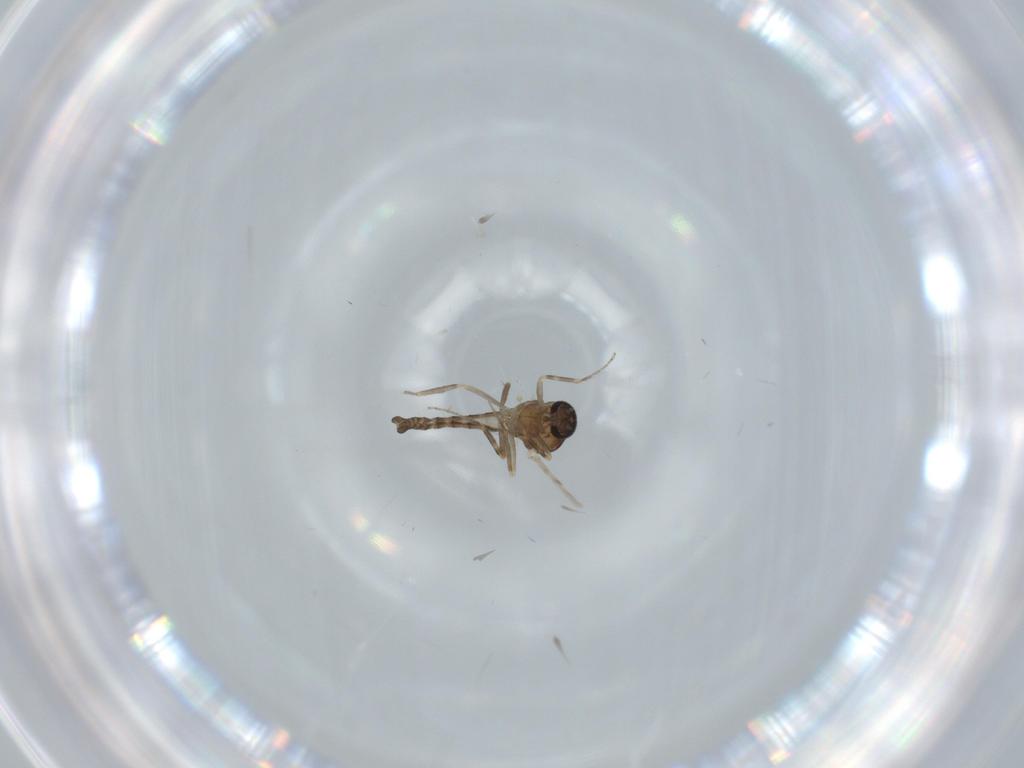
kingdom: Animalia
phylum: Arthropoda
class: Insecta
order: Diptera
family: Ceratopogonidae
